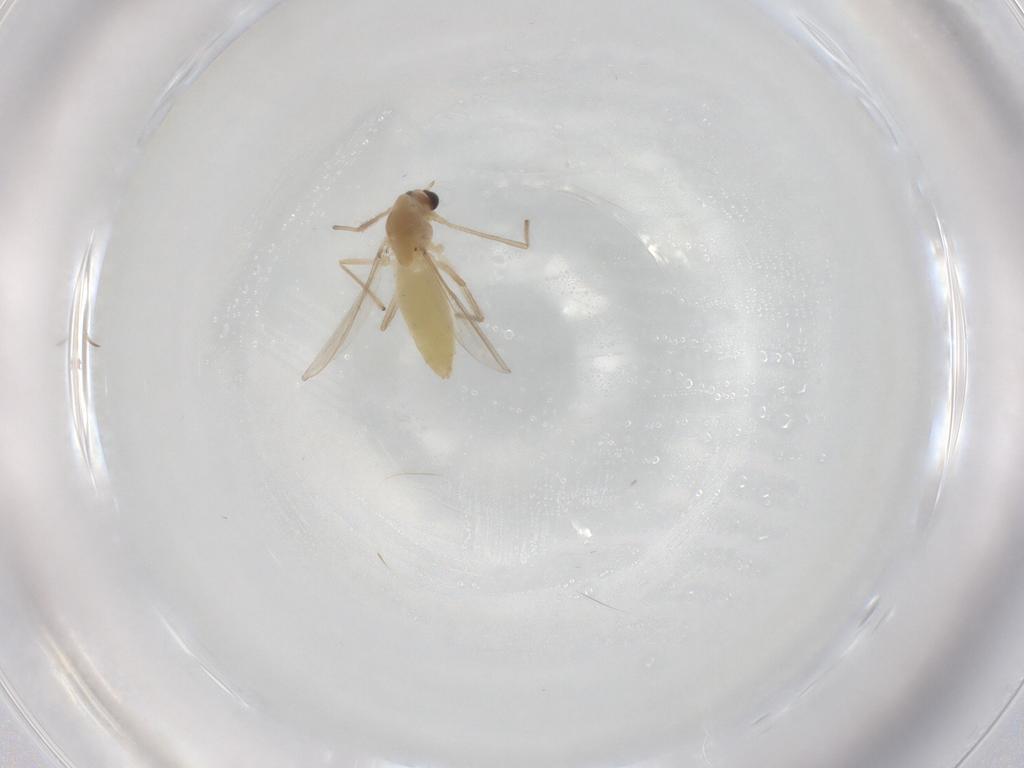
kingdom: Animalia
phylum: Arthropoda
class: Insecta
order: Diptera
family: Chironomidae
